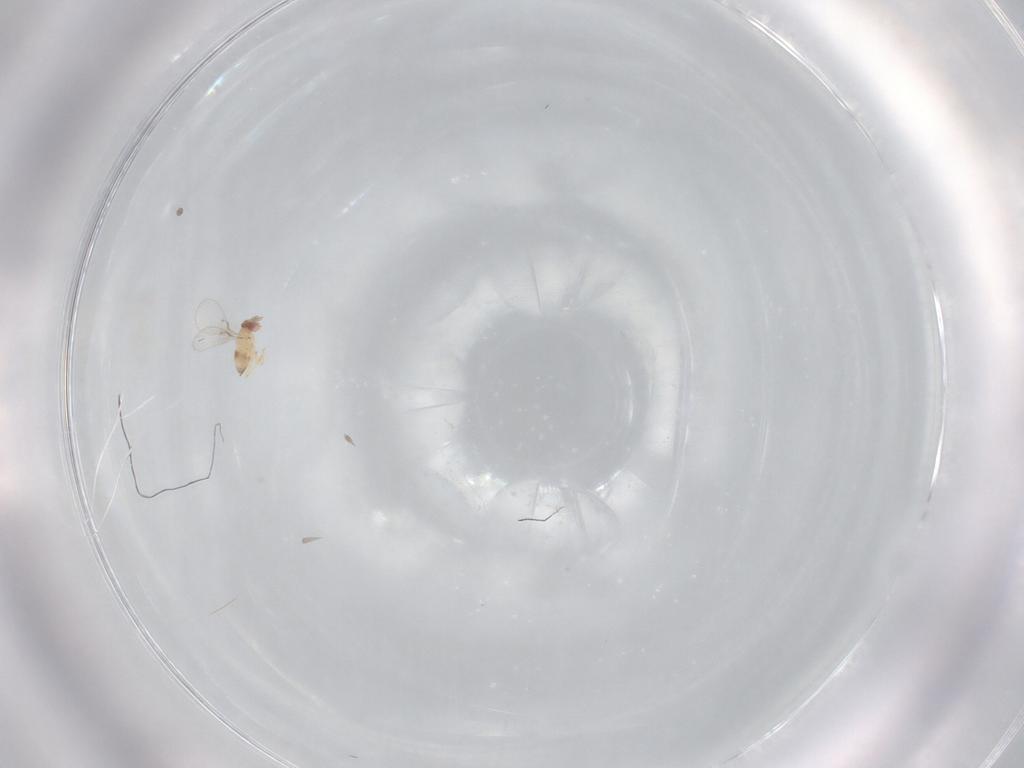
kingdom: Animalia
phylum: Arthropoda
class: Insecta
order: Hymenoptera
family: Trichogrammatidae
